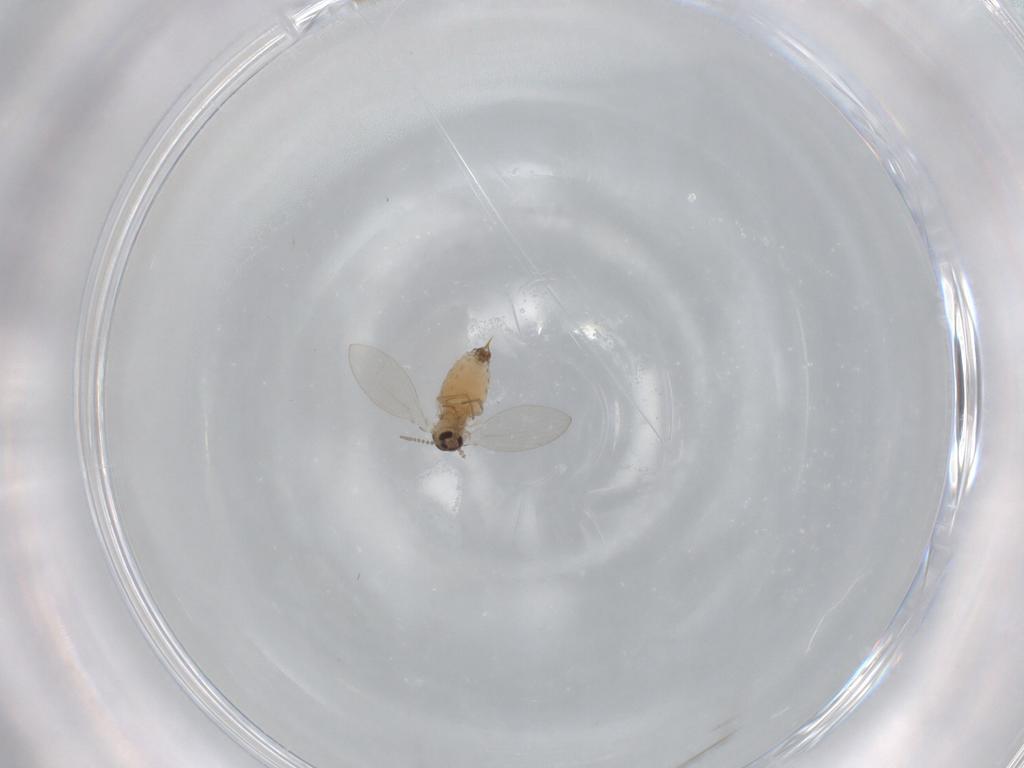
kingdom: Animalia
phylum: Arthropoda
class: Insecta
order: Diptera
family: Psychodidae
